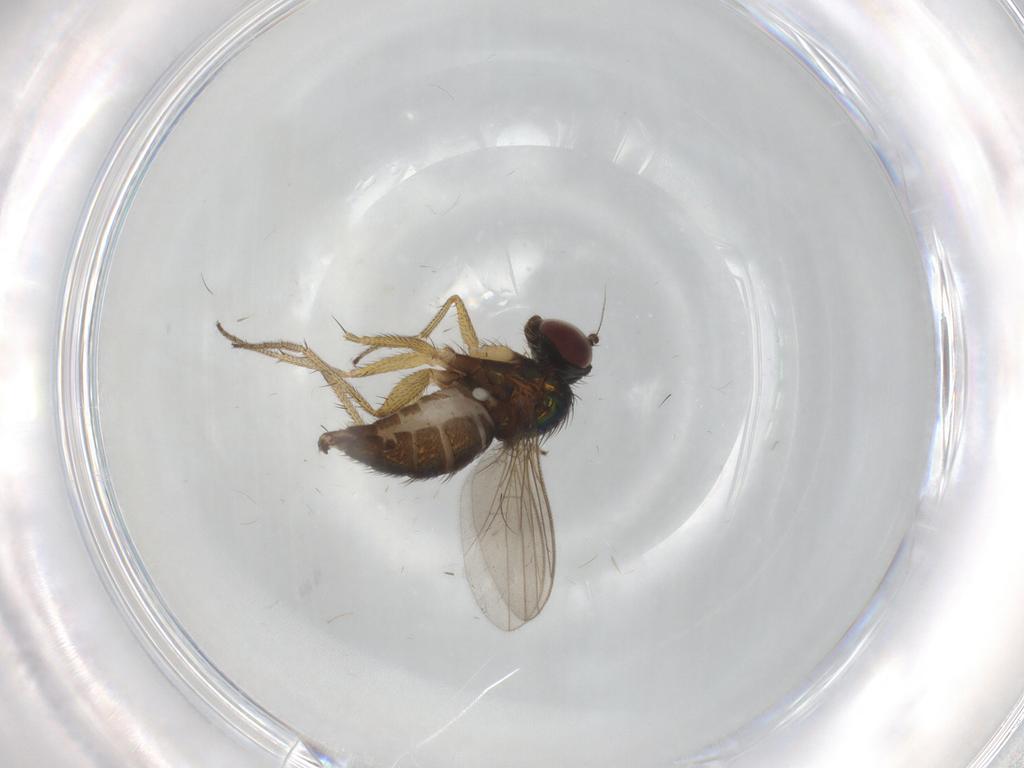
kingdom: Animalia
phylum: Arthropoda
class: Insecta
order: Diptera
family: Dolichopodidae
